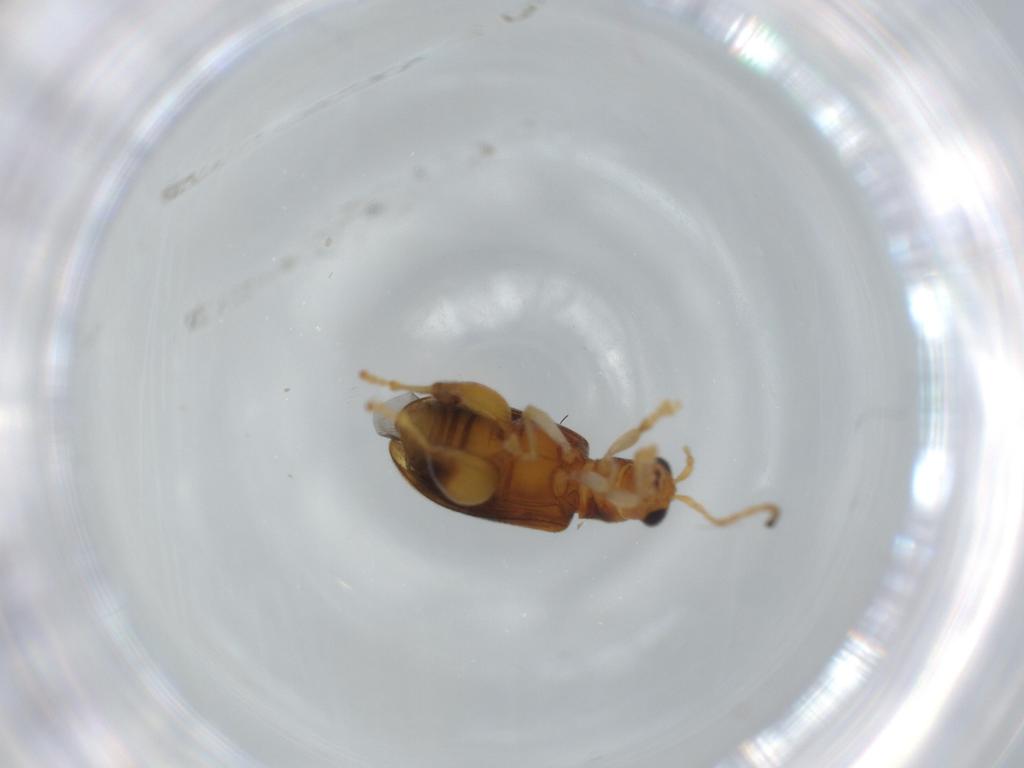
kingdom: Animalia
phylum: Arthropoda
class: Insecta
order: Coleoptera
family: Chrysomelidae
